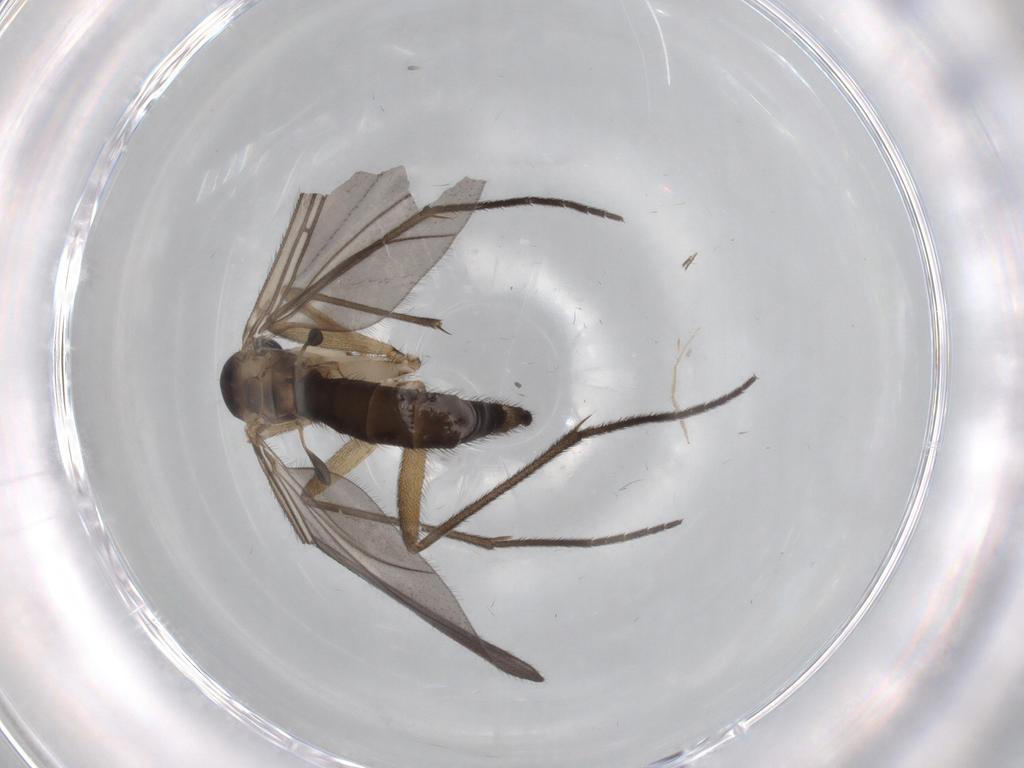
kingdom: Animalia
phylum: Arthropoda
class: Insecta
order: Diptera
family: Sciaridae
